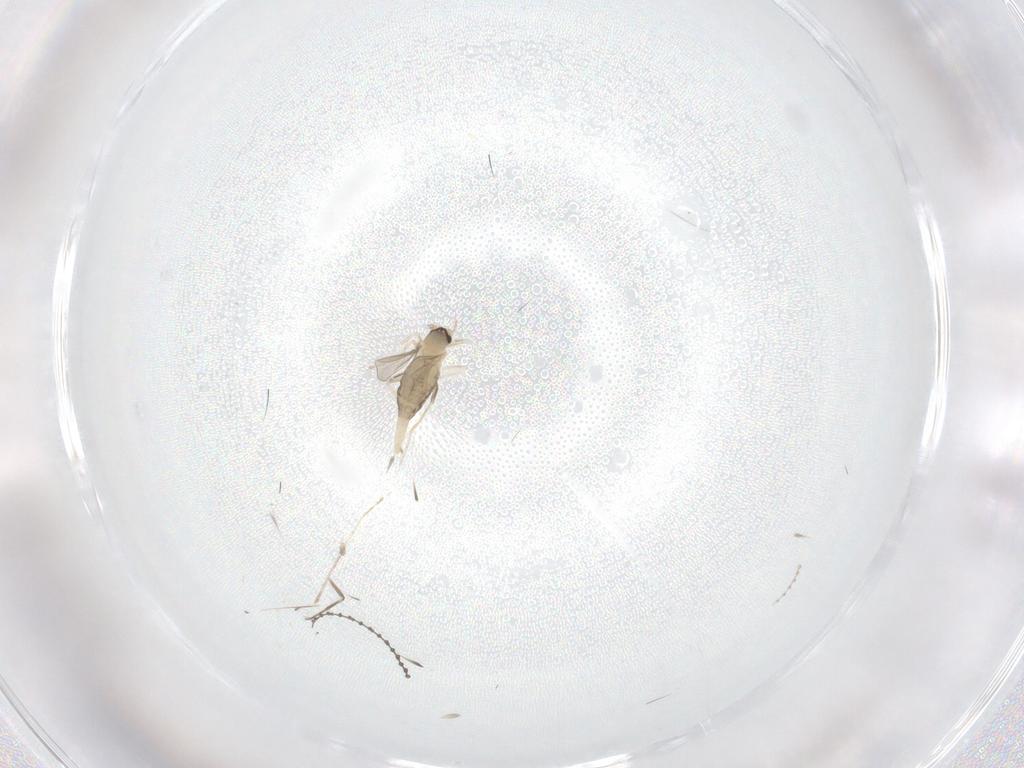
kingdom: Animalia
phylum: Arthropoda
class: Insecta
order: Diptera
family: Cecidomyiidae
